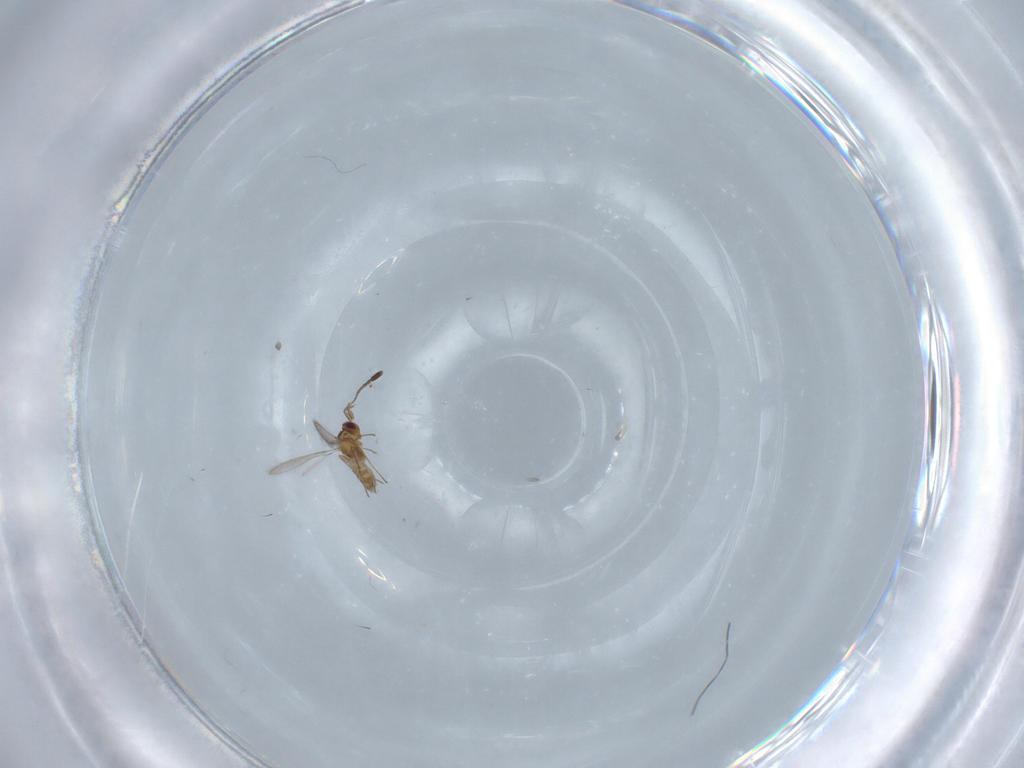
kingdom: Animalia
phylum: Arthropoda
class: Insecta
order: Hymenoptera
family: Mymaridae
